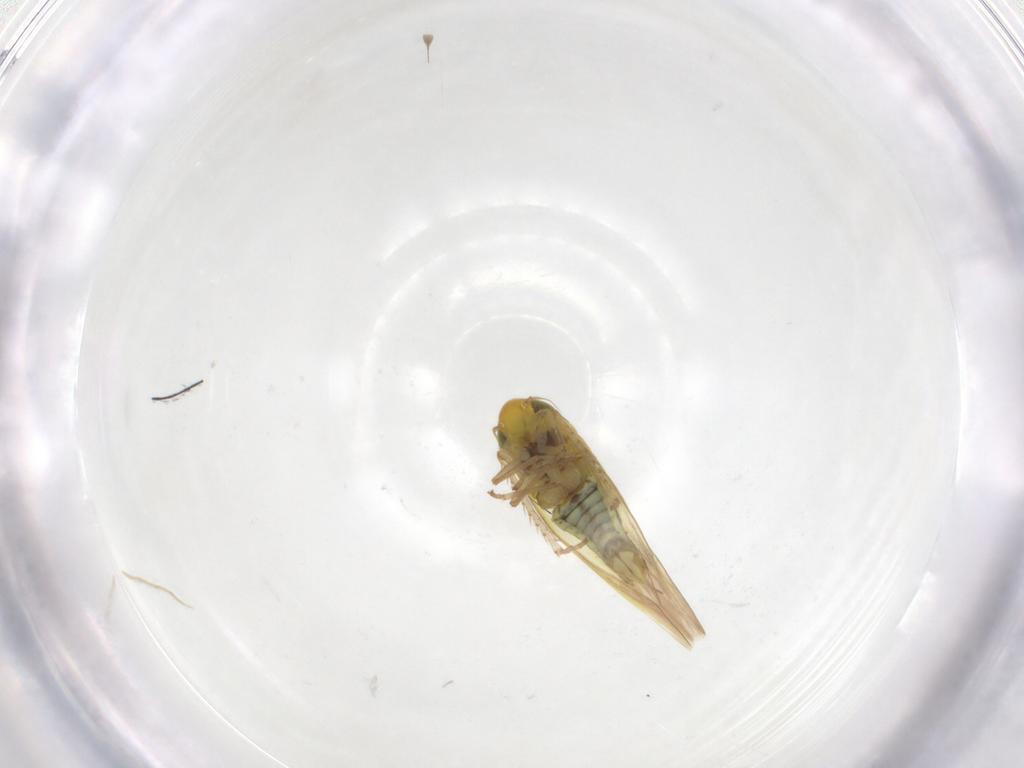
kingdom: Animalia
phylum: Arthropoda
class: Insecta
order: Hemiptera
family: Cicadellidae
